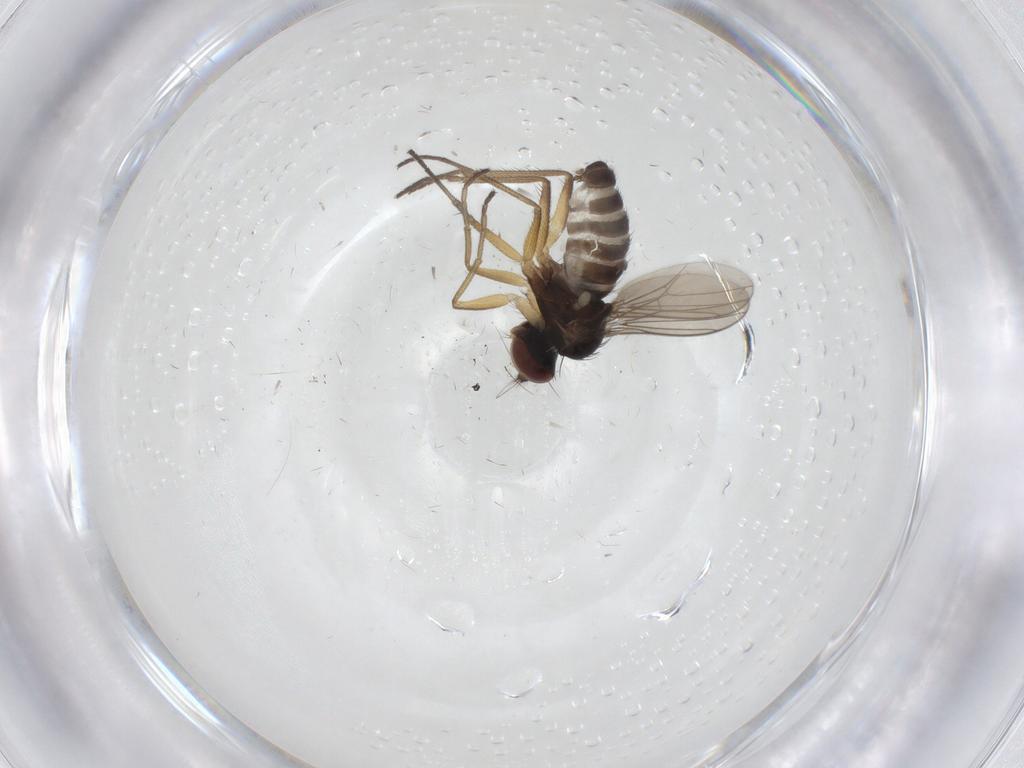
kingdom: Animalia
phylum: Arthropoda
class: Insecta
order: Diptera
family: Dolichopodidae
